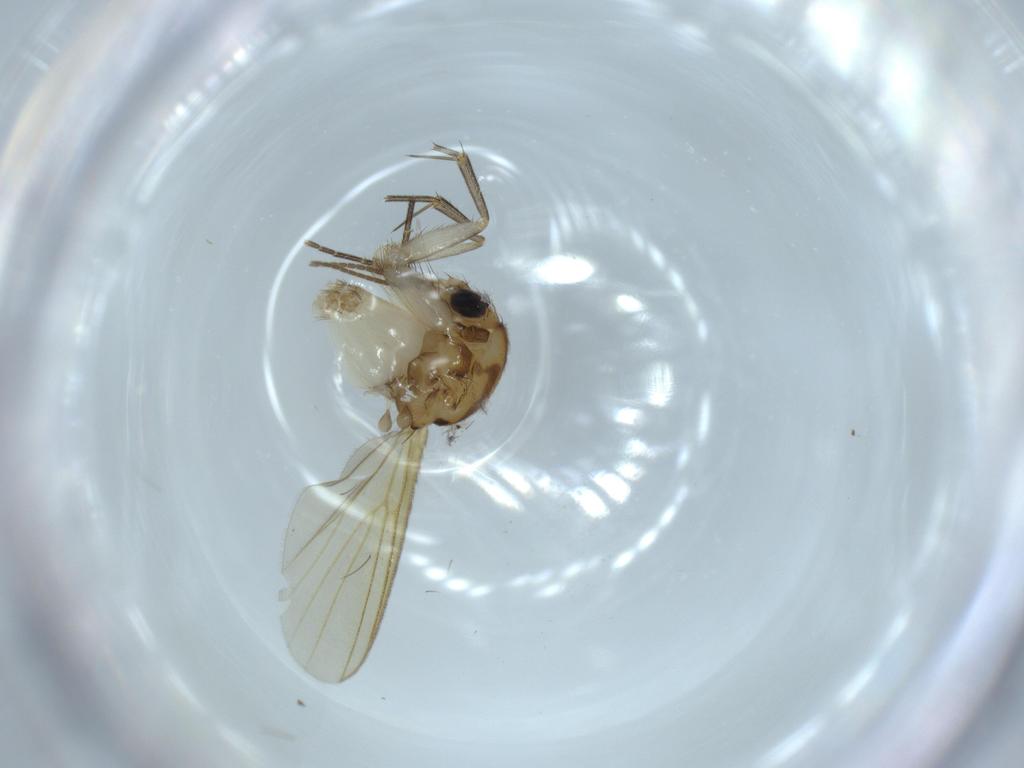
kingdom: Animalia
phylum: Arthropoda
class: Insecta
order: Diptera
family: Mycetophilidae
